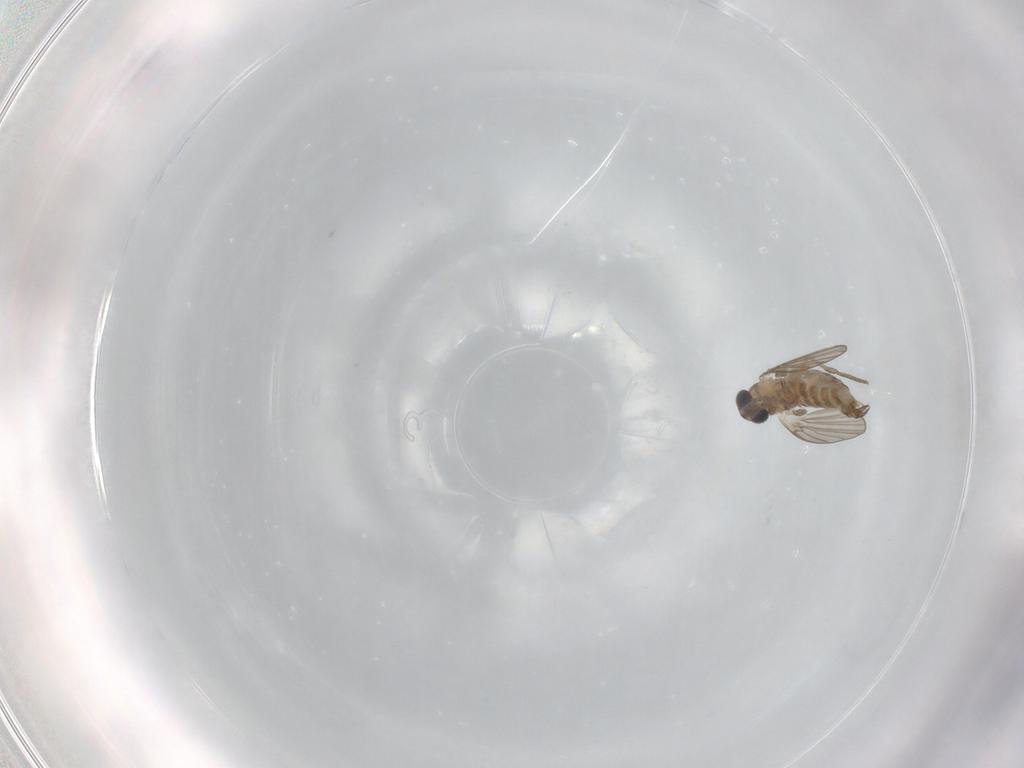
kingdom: Animalia
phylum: Arthropoda
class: Insecta
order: Diptera
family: Psychodidae
